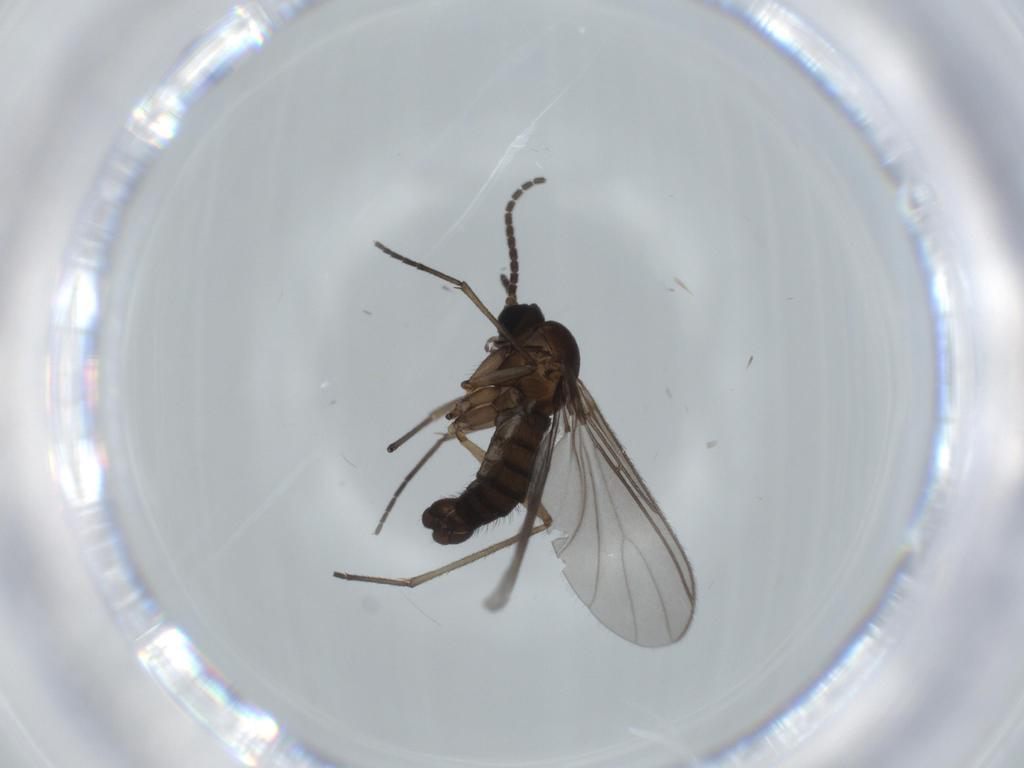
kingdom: Animalia
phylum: Arthropoda
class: Insecta
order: Diptera
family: Sciaridae
